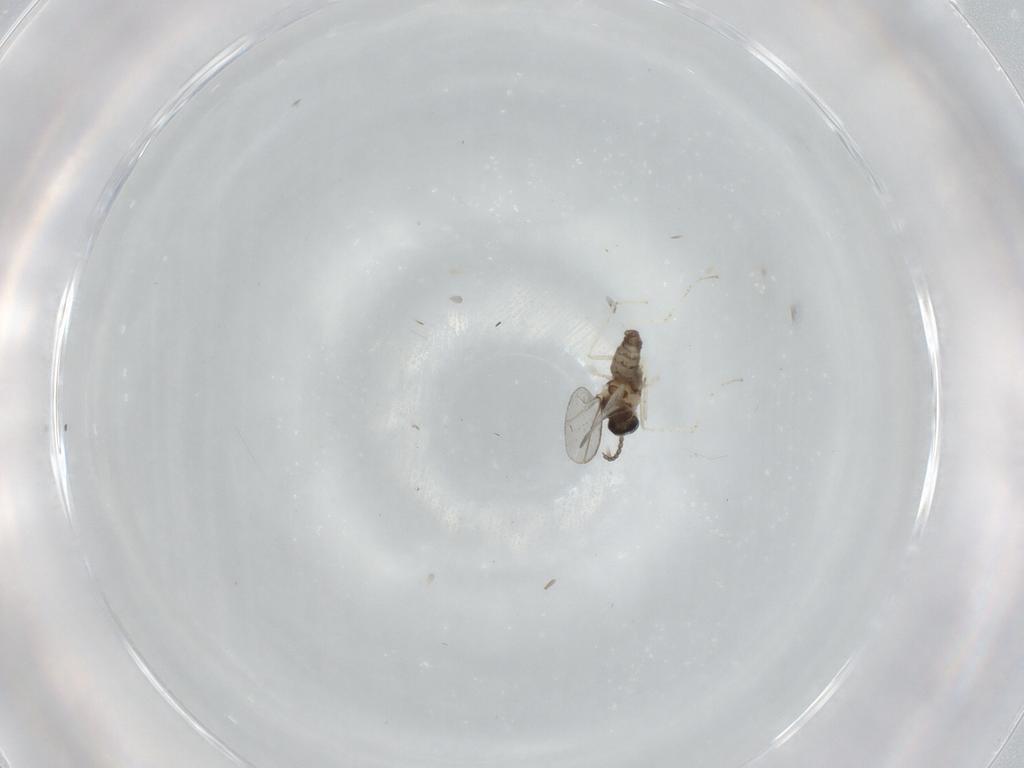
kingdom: Animalia
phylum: Arthropoda
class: Insecta
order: Diptera
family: Cecidomyiidae
